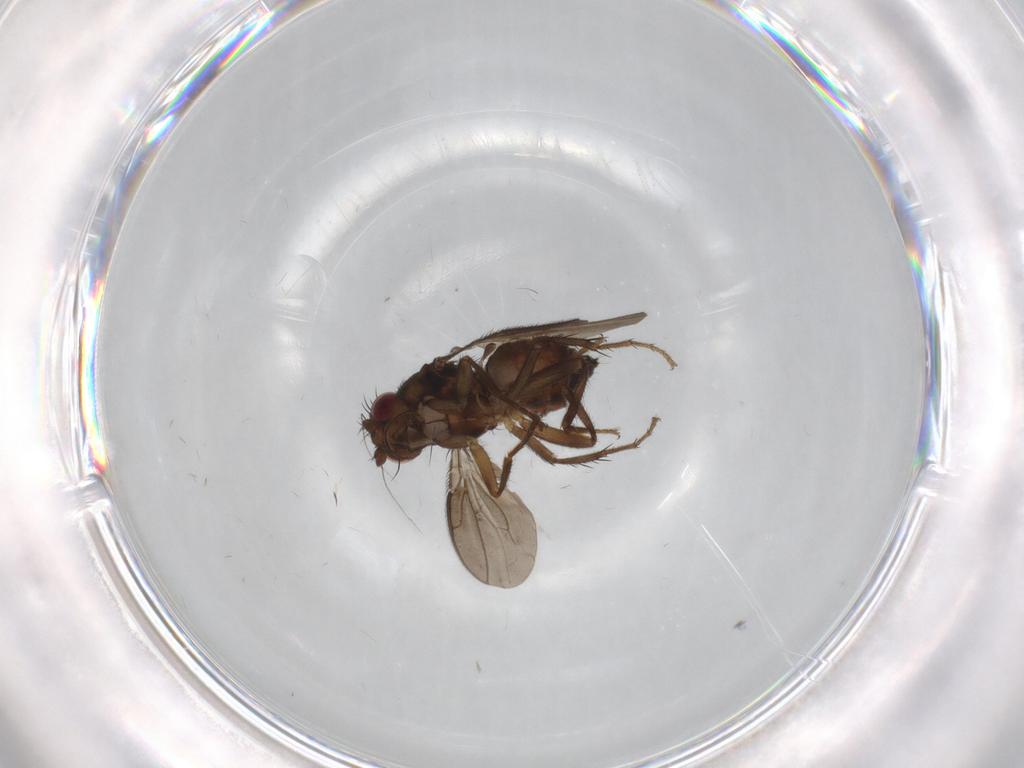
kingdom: Animalia
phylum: Arthropoda
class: Insecta
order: Diptera
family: Sphaeroceridae
